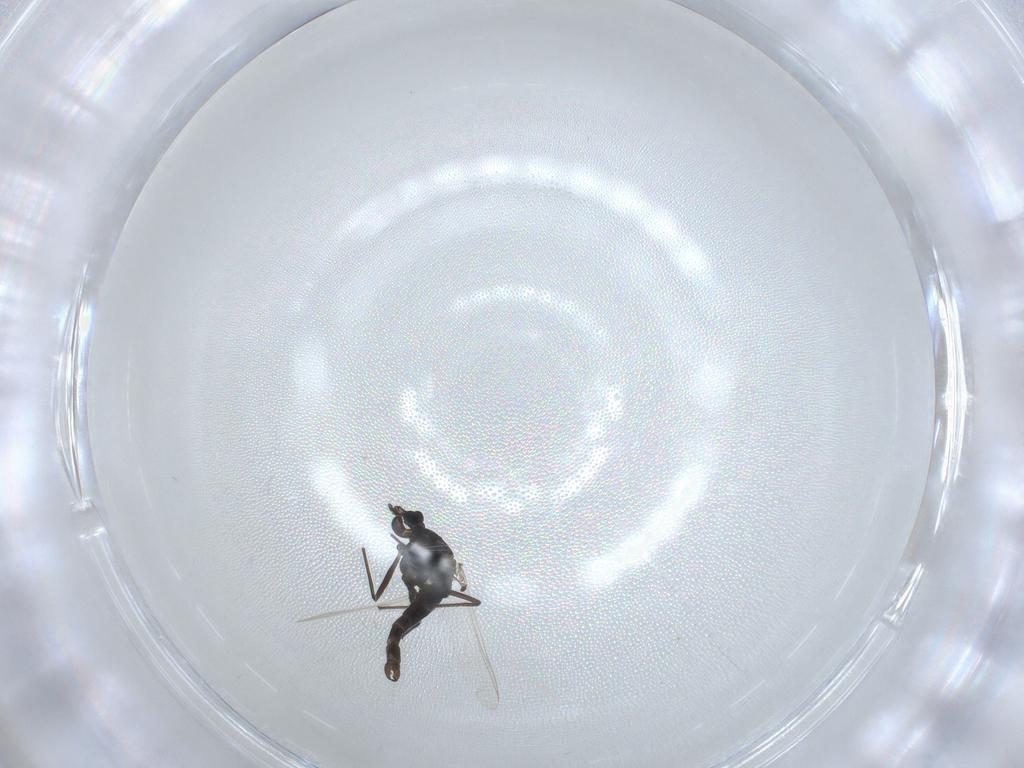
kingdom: Animalia
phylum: Arthropoda
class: Insecta
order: Diptera
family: Limoniidae
